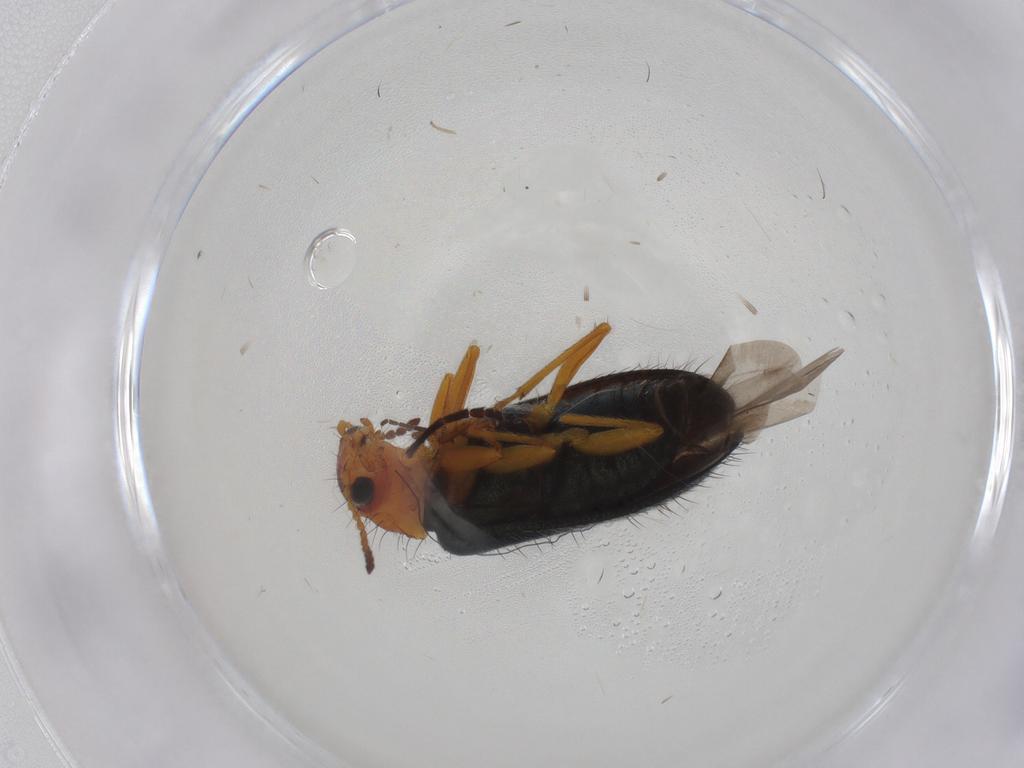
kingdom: Animalia
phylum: Arthropoda
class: Insecta
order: Coleoptera
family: Melyridae
